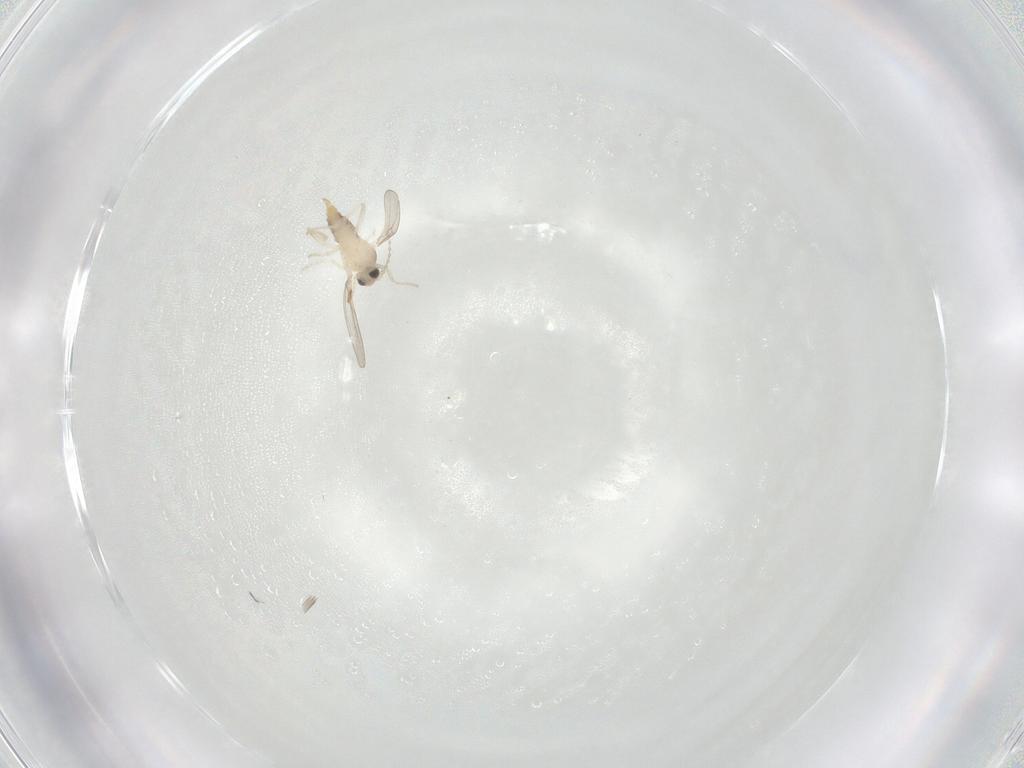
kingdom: Animalia
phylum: Arthropoda
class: Insecta
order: Diptera
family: Cecidomyiidae
